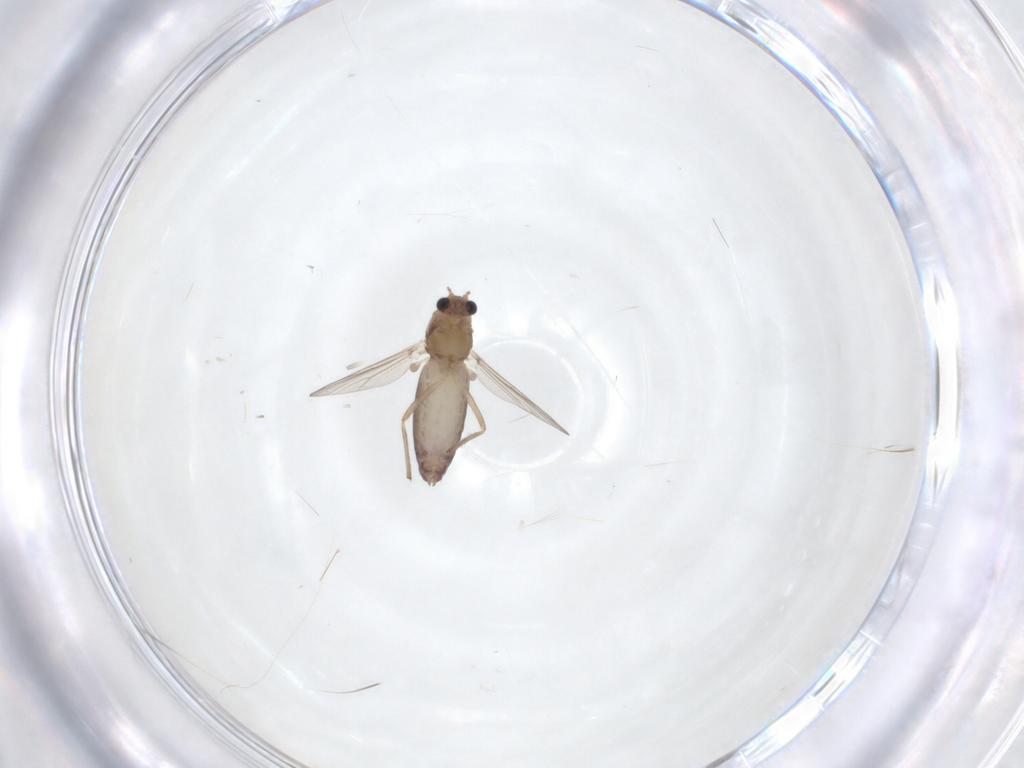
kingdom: Animalia
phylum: Arthropoda
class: Insecta
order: Diptera
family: Chironomidae
